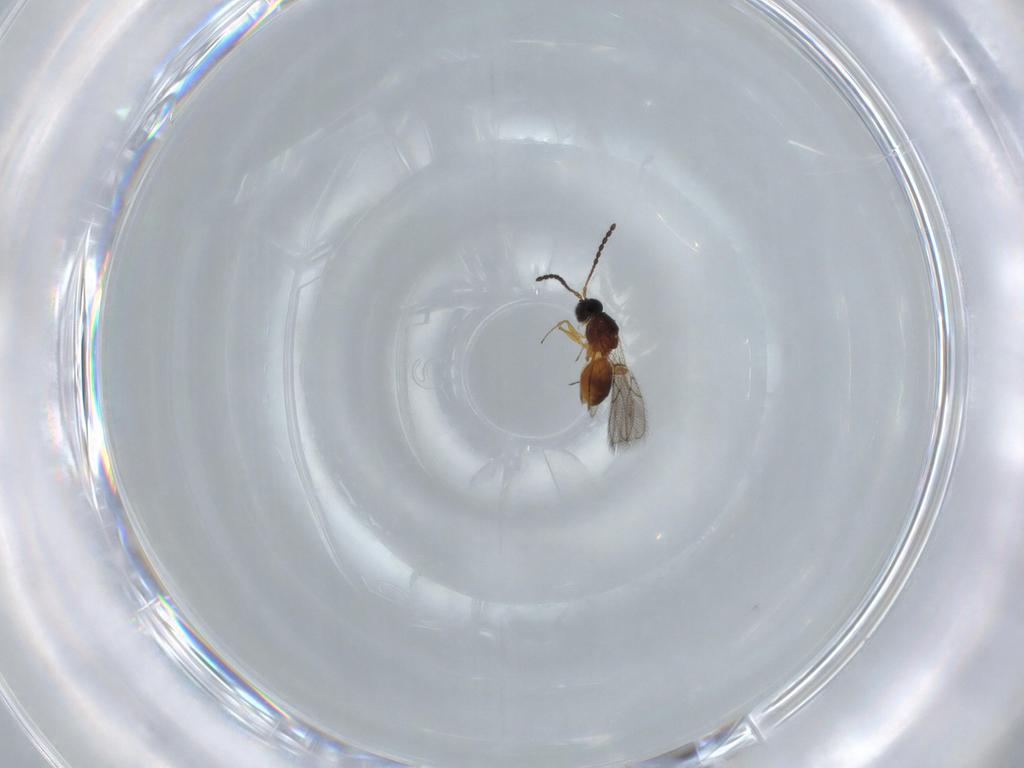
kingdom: Animalia
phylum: Arthropoda
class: Insecta
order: Hymenoptera
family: Figitidae
